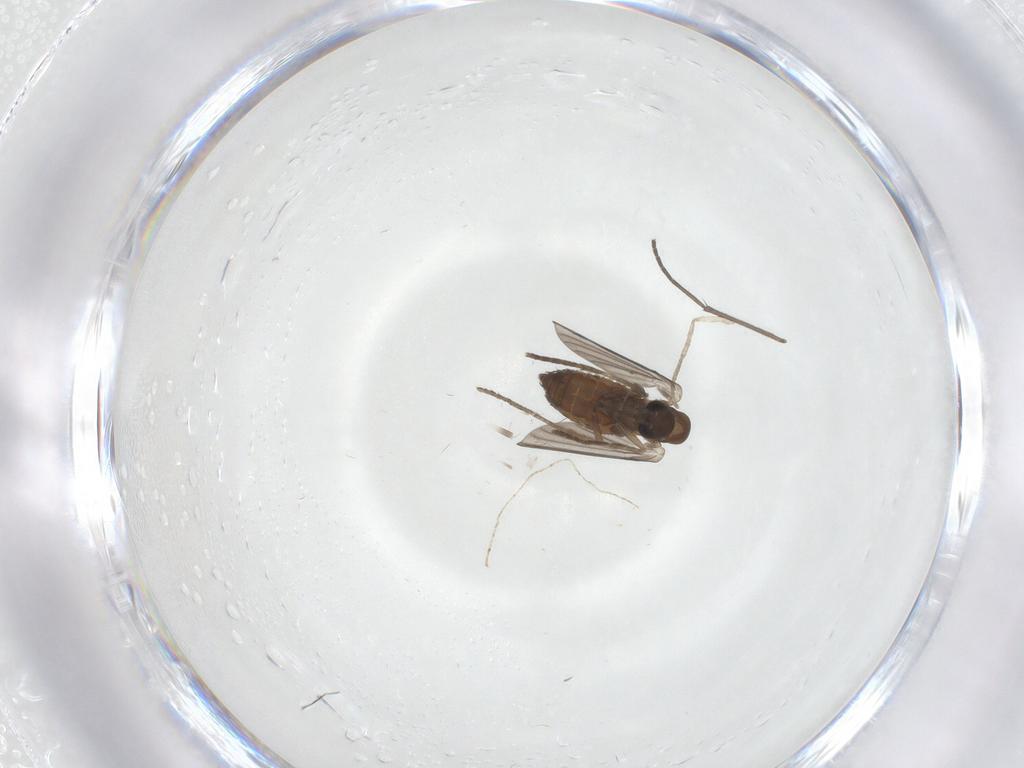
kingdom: Animalia
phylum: Arthropoda
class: Insecta
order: Diptera
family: Psychodidae
